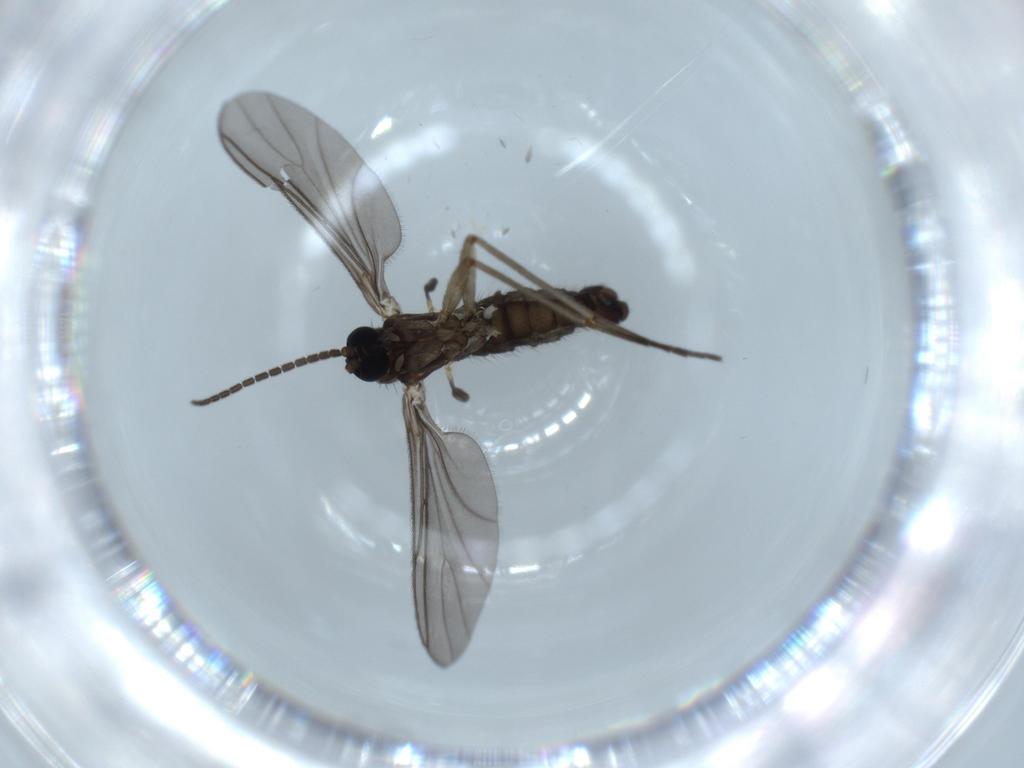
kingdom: Animalia
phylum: Arthropoda
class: Insecta
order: Diptera
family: Sciaridae
